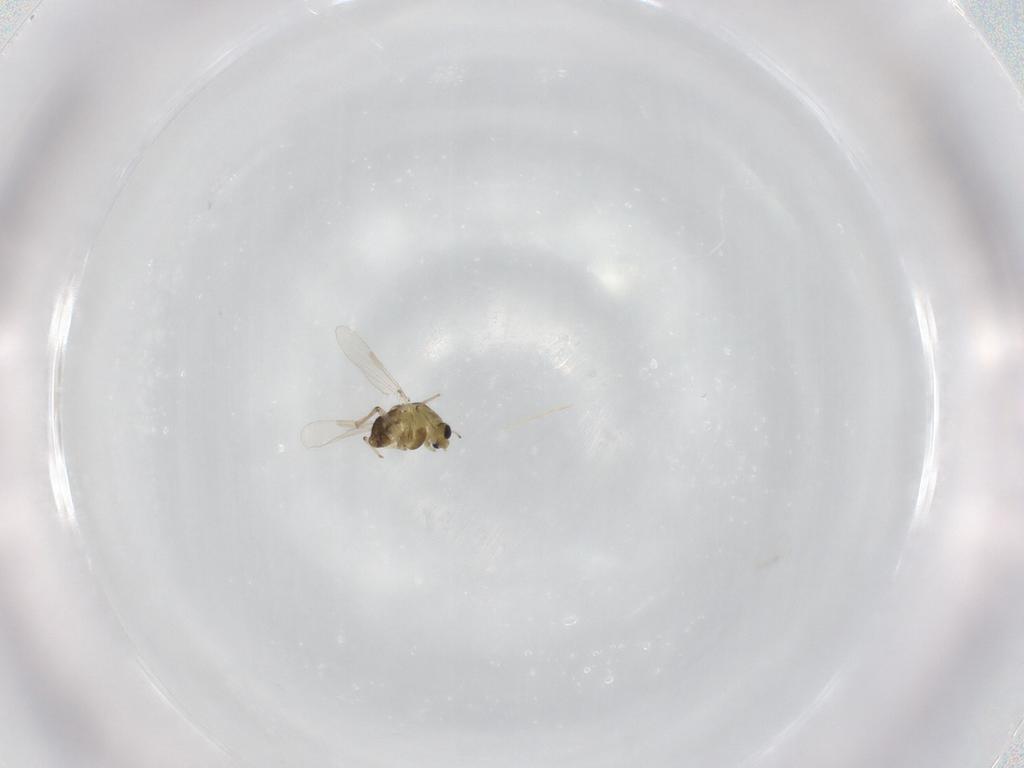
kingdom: Animalia
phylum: Arthropoda
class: Insecta
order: Diptera
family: Chironomidae
